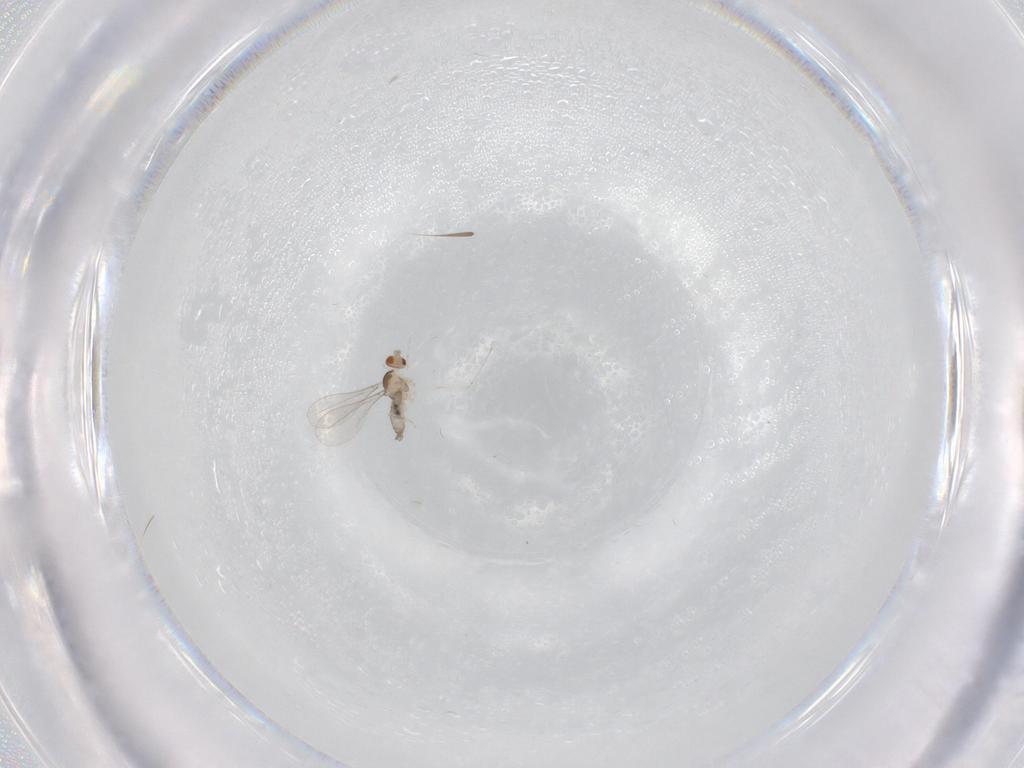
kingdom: Animalia
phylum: Arthropoda
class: Insecta
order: Diptera
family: Cecidomyiidae
